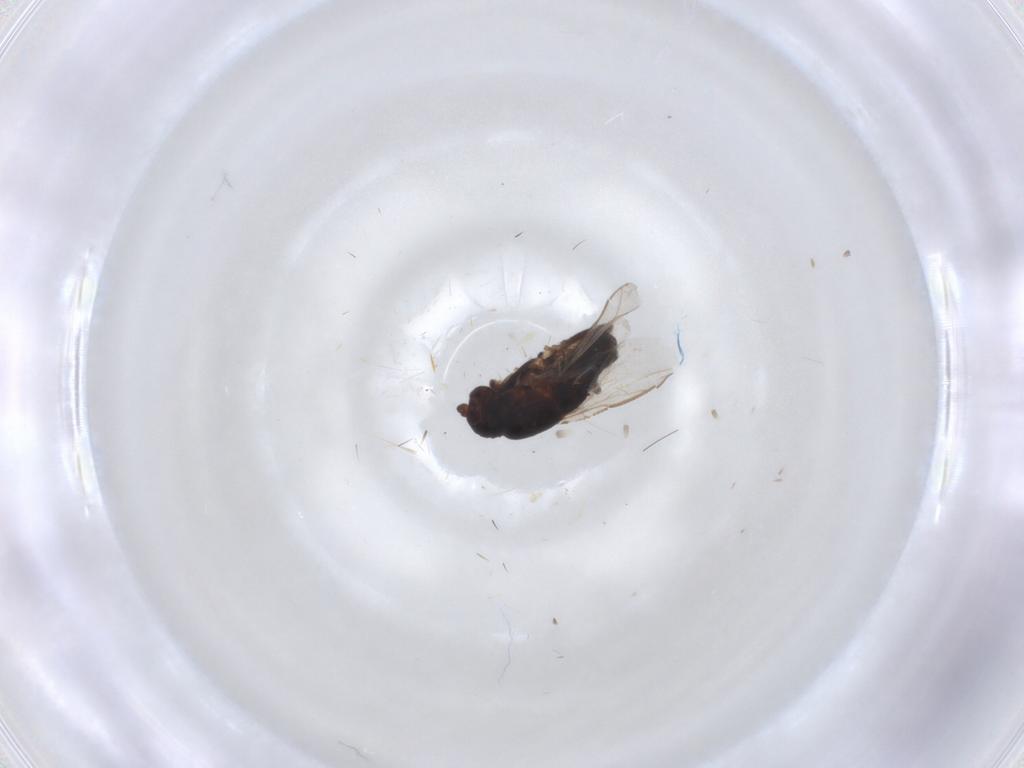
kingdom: Animalia
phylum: Arthropoda
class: Insecta
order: Diptera
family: Sphaeroceridae
